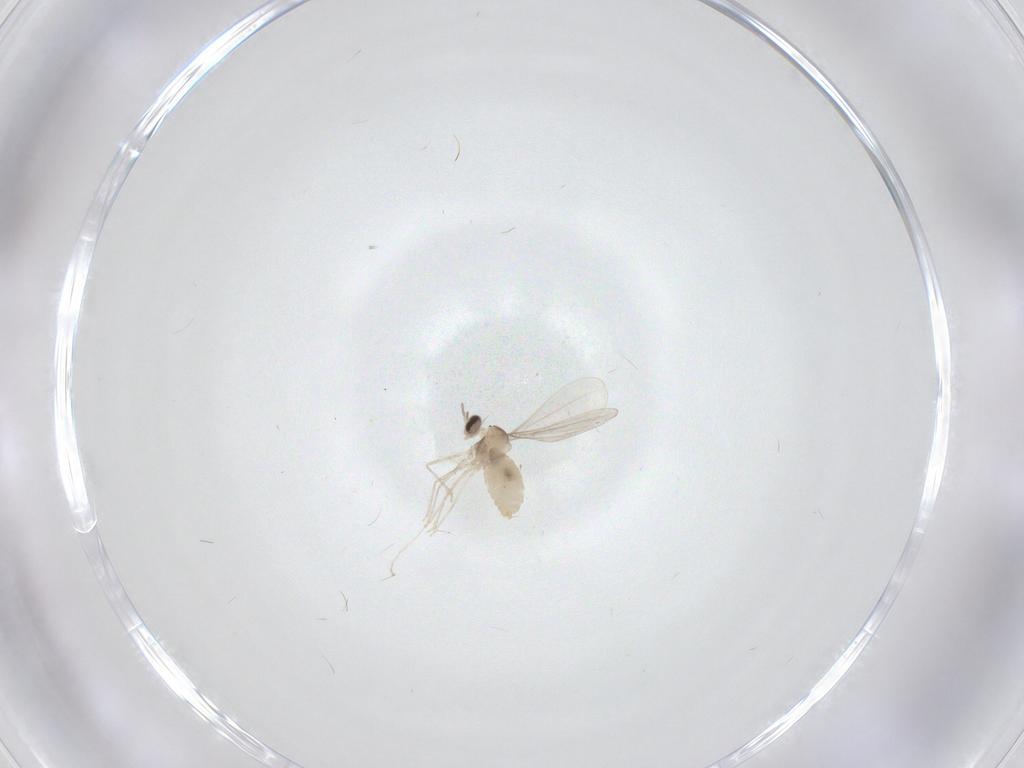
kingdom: Animalia
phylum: Arthropoda
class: Insecta
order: Diptera
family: Cecidomyiidae
